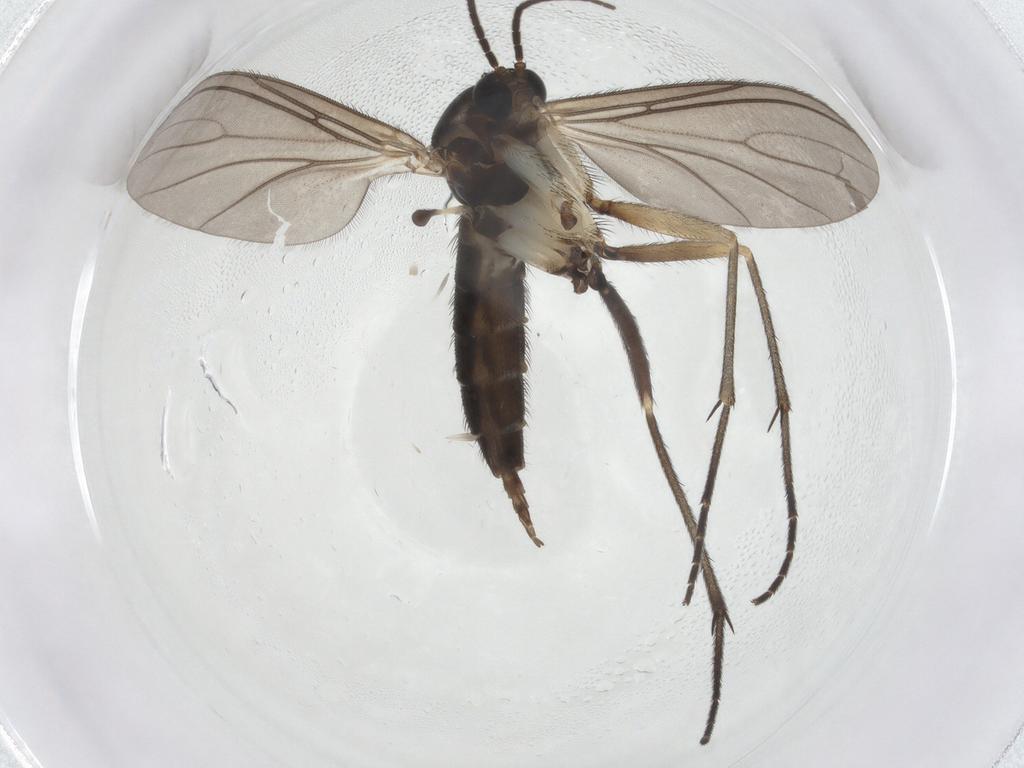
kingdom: Animalia
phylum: Arthropoda
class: Insecta
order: Diptera
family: Sciaridae
